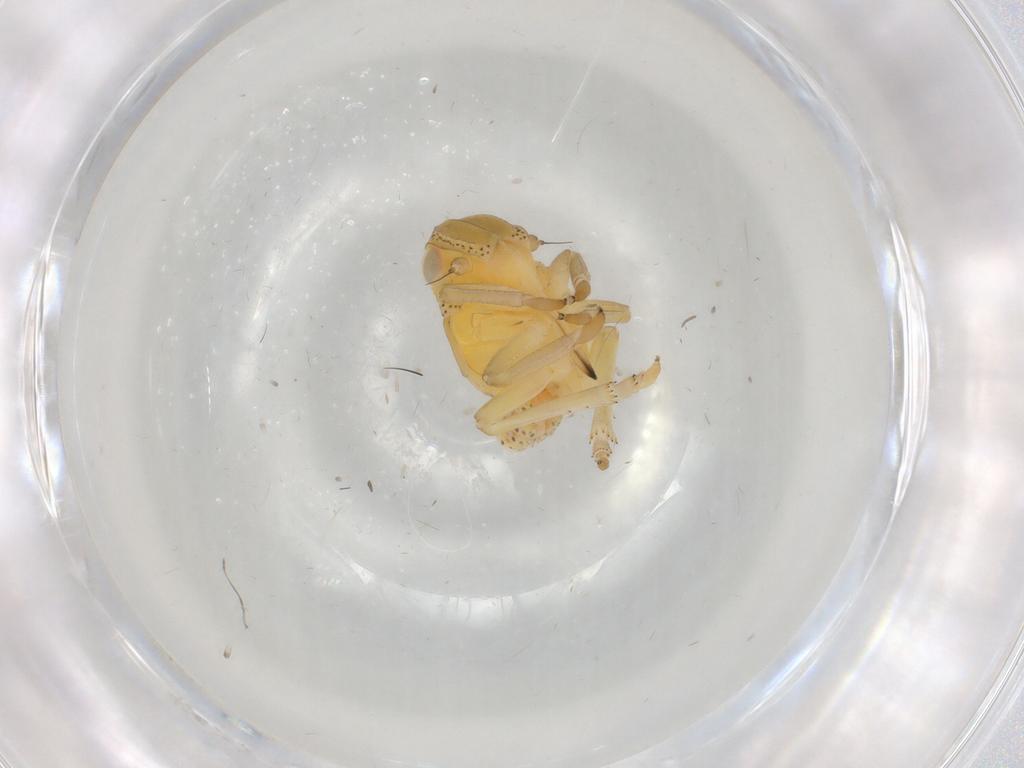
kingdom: Animalia
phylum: Arthropoda
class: Insecta
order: Hemiptera
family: Tropiduchidae
